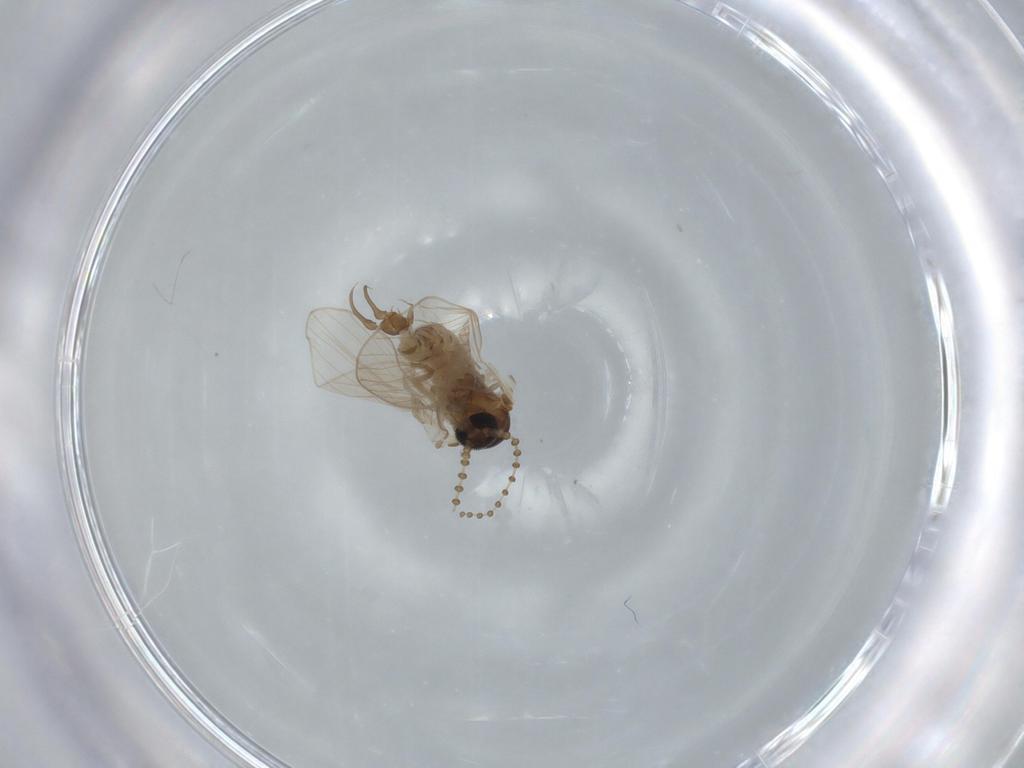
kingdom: Animalia
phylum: Arthropoda
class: Insecta
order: Diptera
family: Psychodidae
